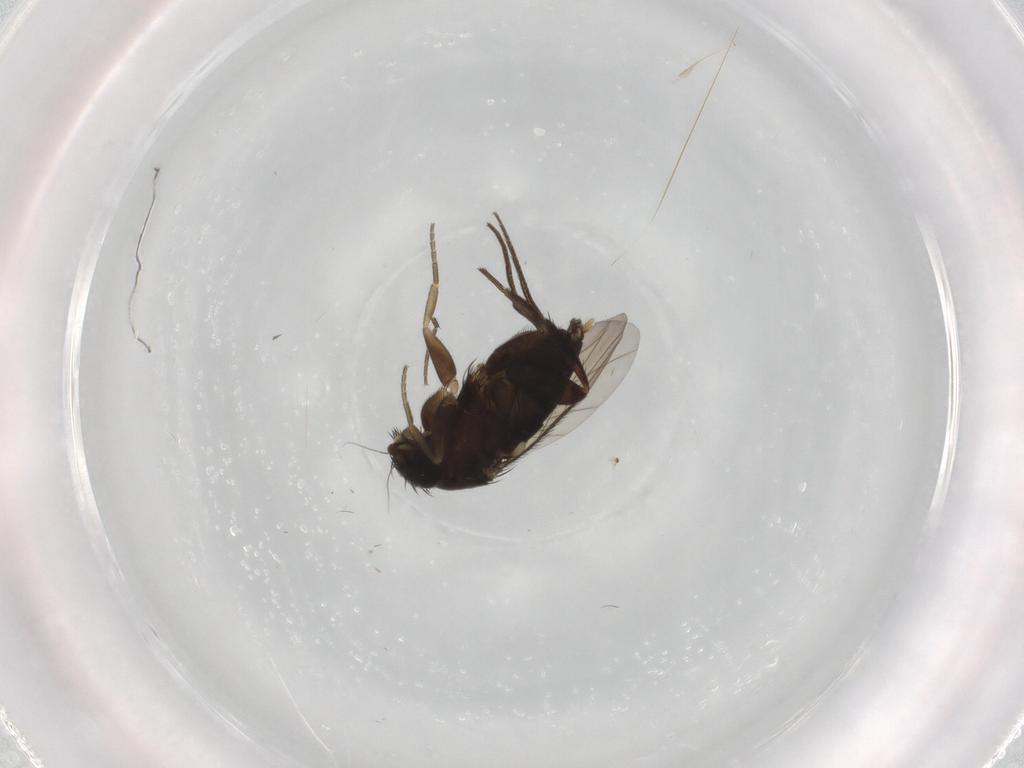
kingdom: Animalia
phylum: Arthropoda
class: Insecta
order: Diptera
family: Phoridae
